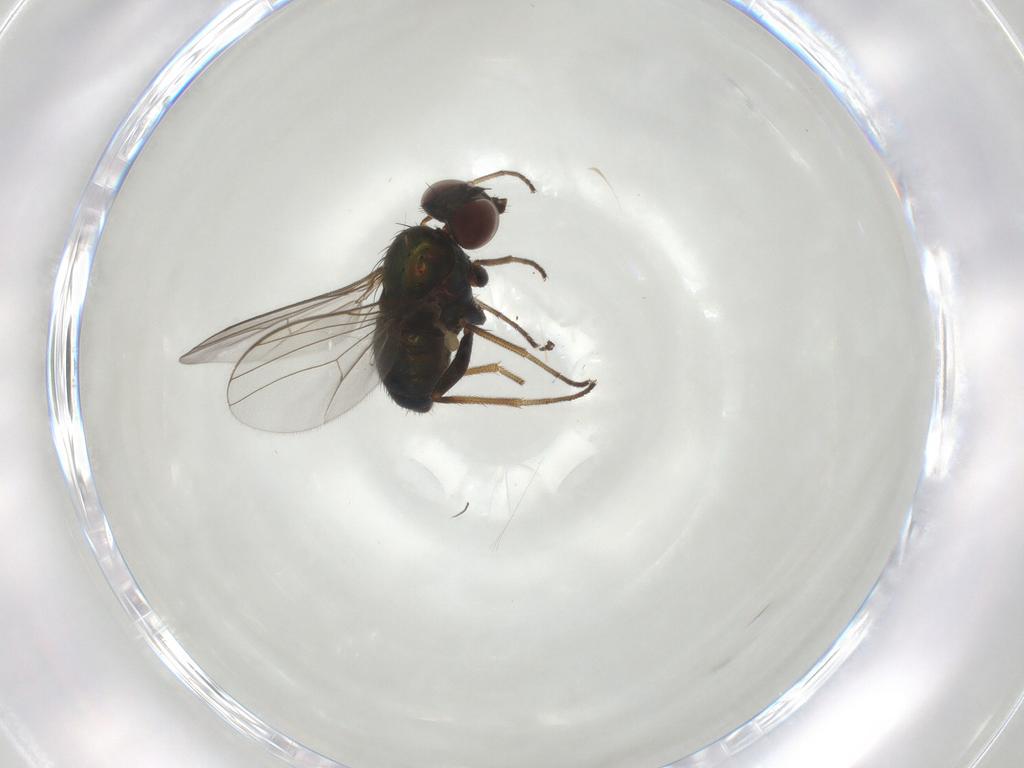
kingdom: Animalia
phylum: Arthropoda
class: Insecta
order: Diptera
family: Dolichopodidae
